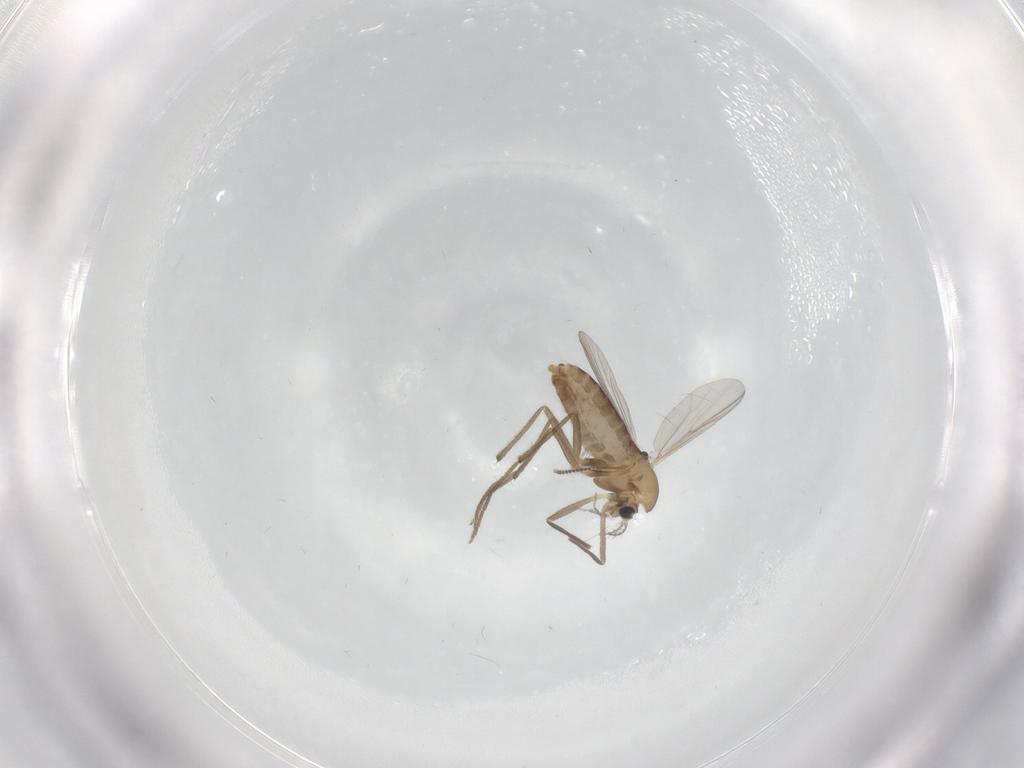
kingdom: Animalia
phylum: Arthropoda
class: Insecta
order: Diptera
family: Chironomidae
